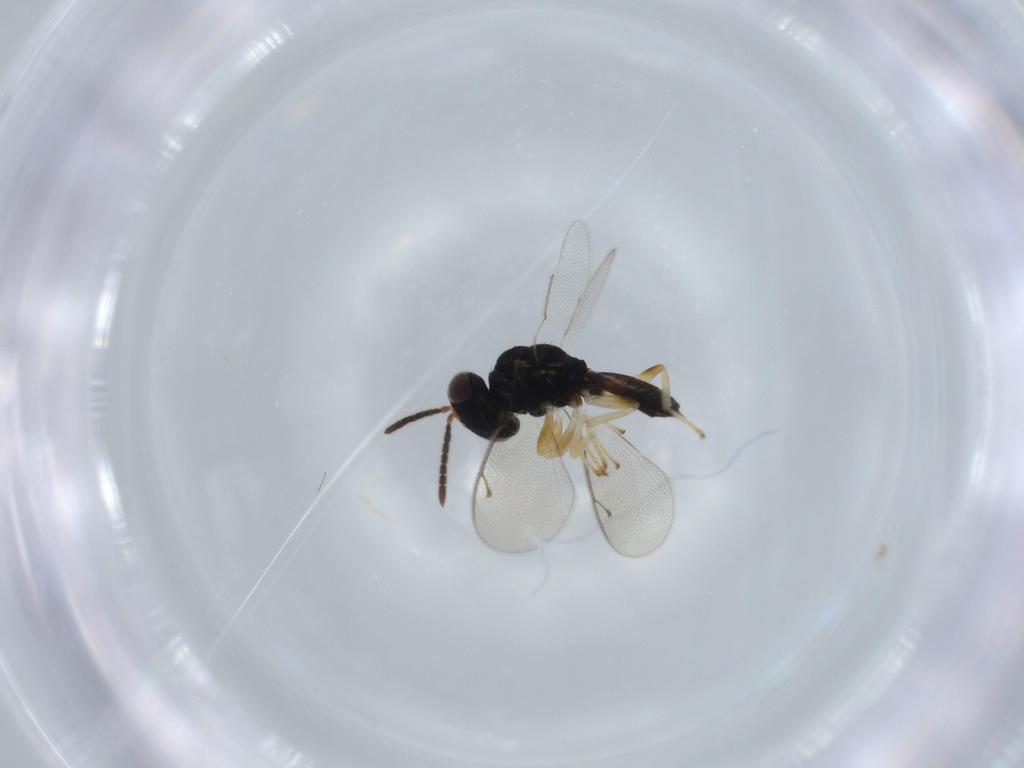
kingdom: Animalia
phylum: Arthropoda
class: Insecta
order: Hymenoptera
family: Pteromalidae
